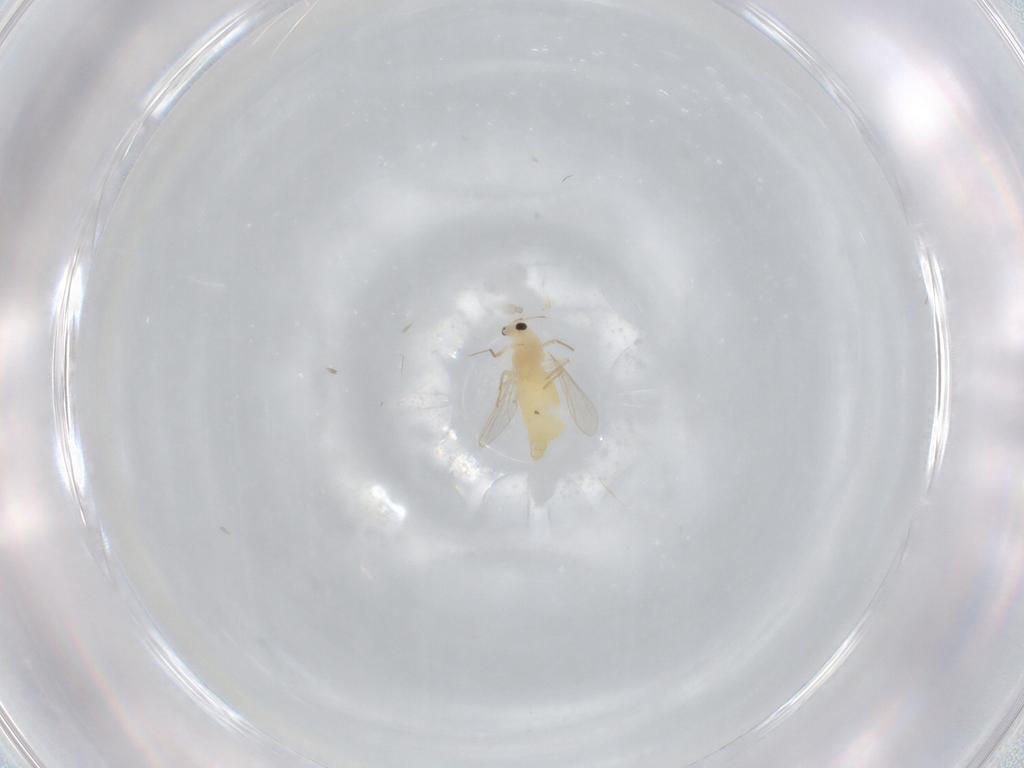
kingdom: Animalia
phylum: Arthropoda
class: Insecta
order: Diptera
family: Chironomidae
